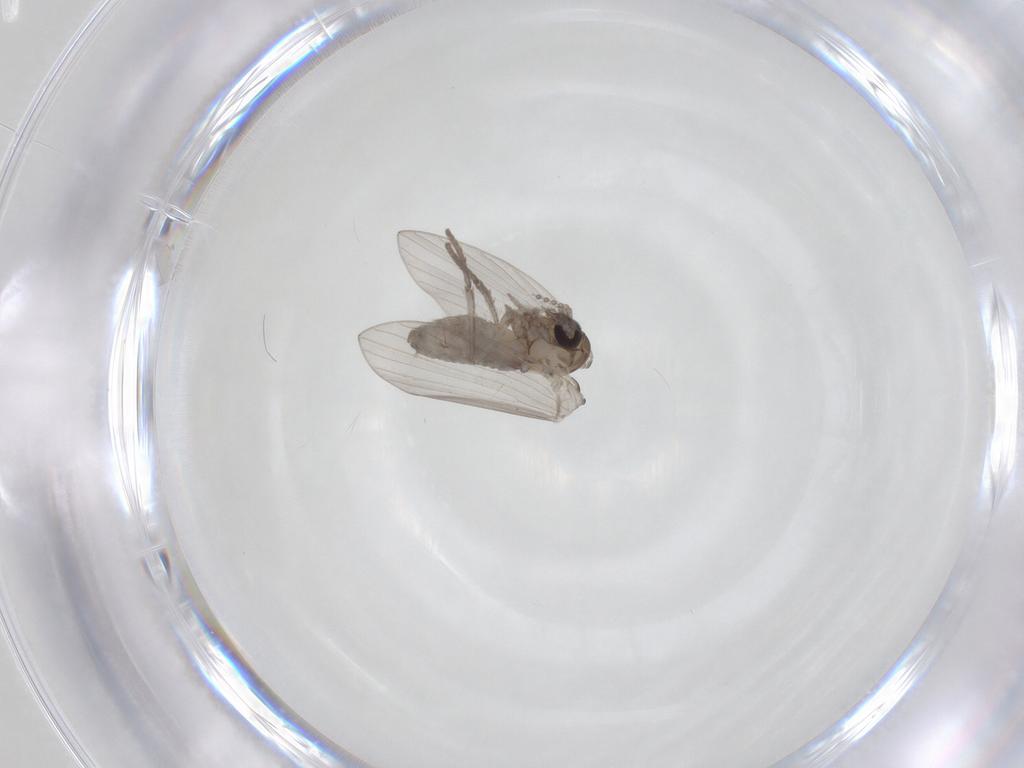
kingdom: Animalia
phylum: Arthropoda
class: Insecta
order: Diptera
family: Psychodidae
